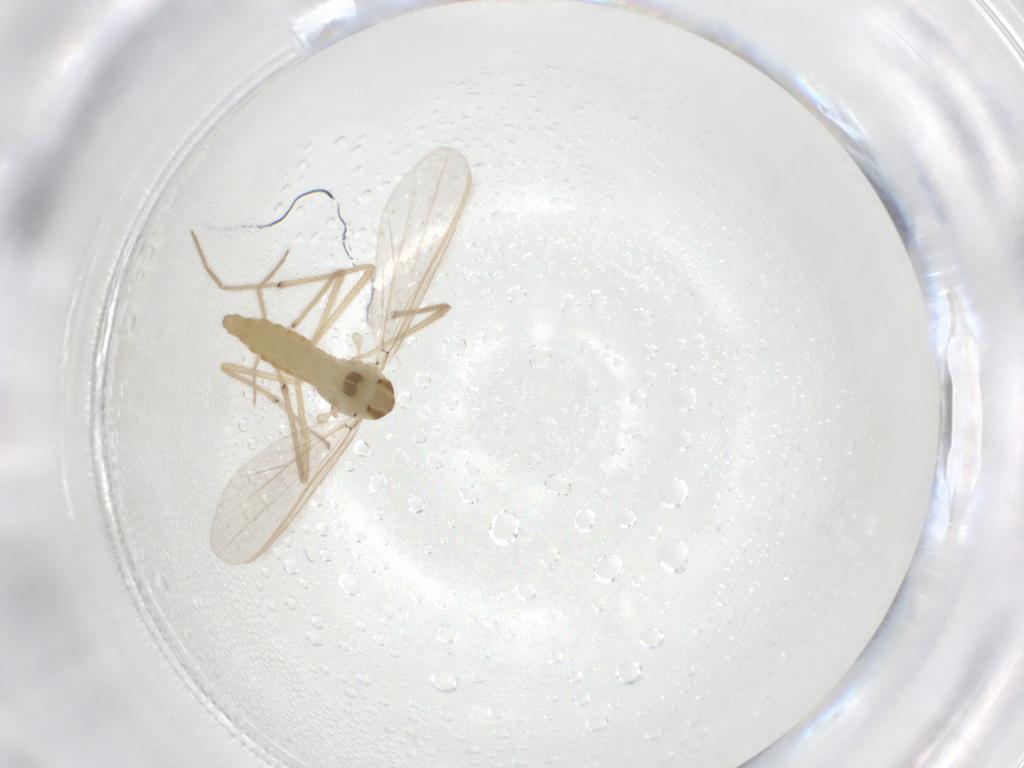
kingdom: Animalia
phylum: Arthropoda
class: Insecta
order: Diptera
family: Chironomidae
